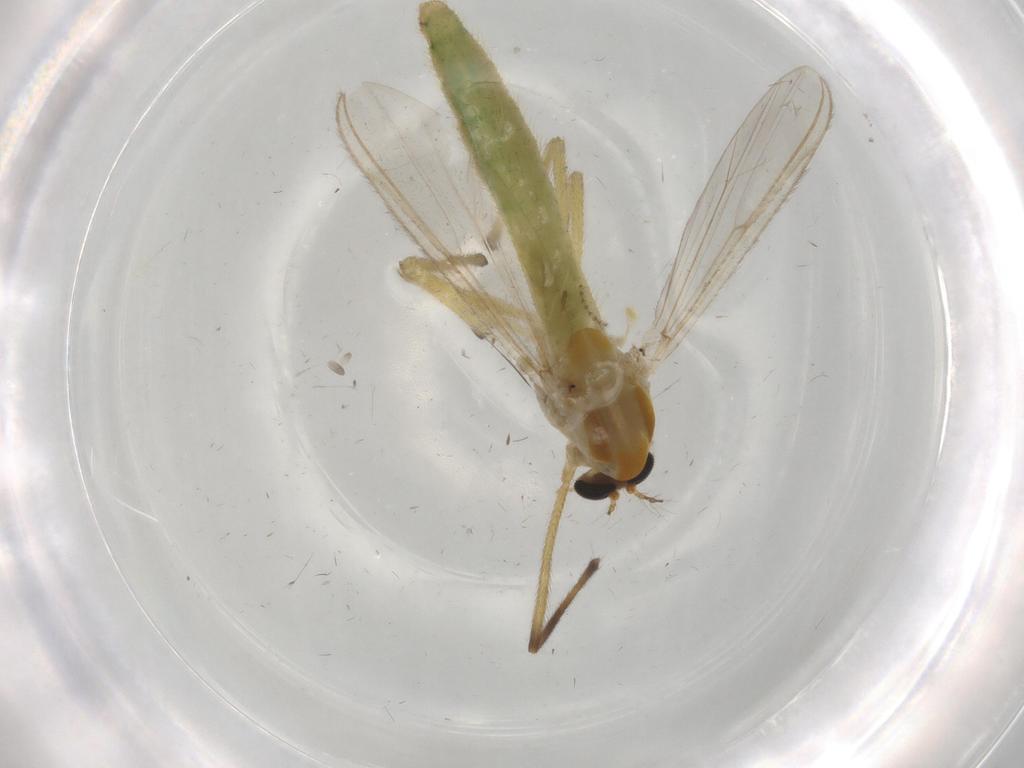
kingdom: Animalia
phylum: Arthropoda
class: Insecta
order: Diptera
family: Chironomidae
